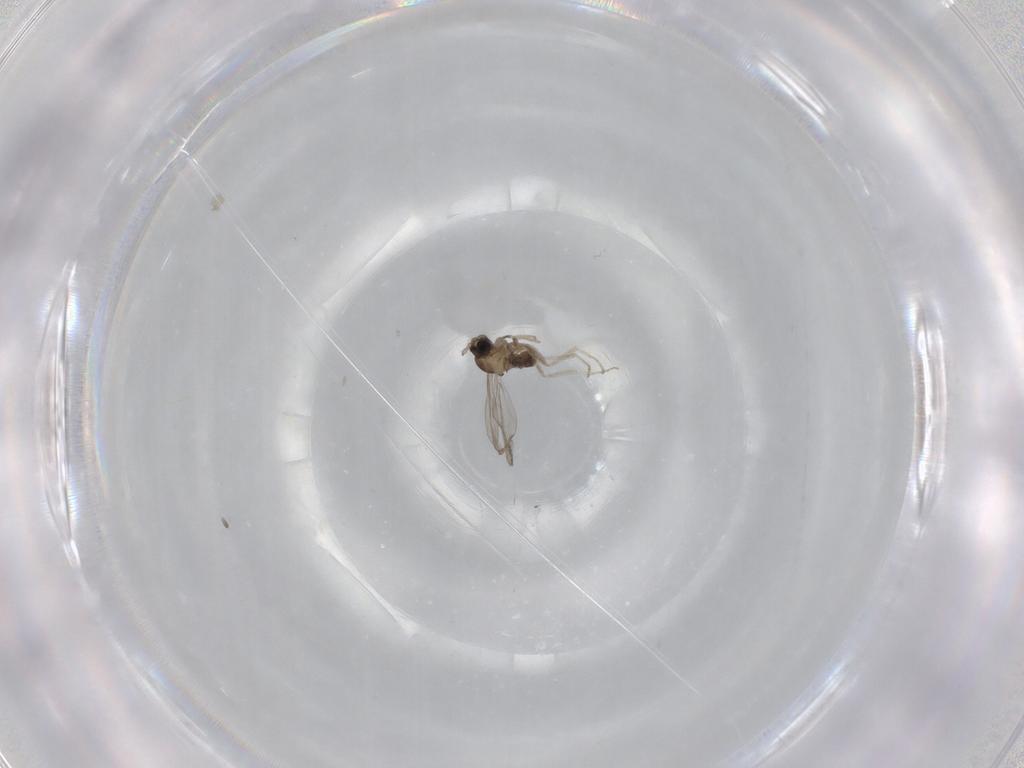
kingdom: Animalia
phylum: Arthropoda
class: Insecta
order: Diptera
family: Cecidomyiidae
